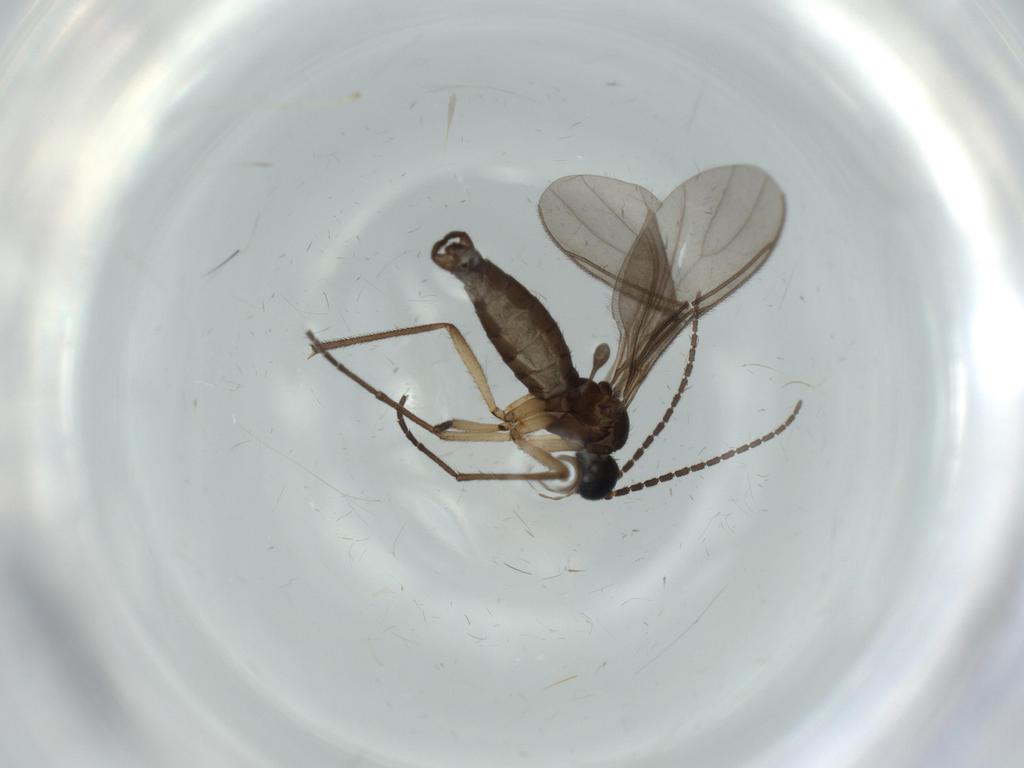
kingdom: Animalia
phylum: Arthropoda
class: Insecta
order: Diptera
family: Cecidomyiidae
